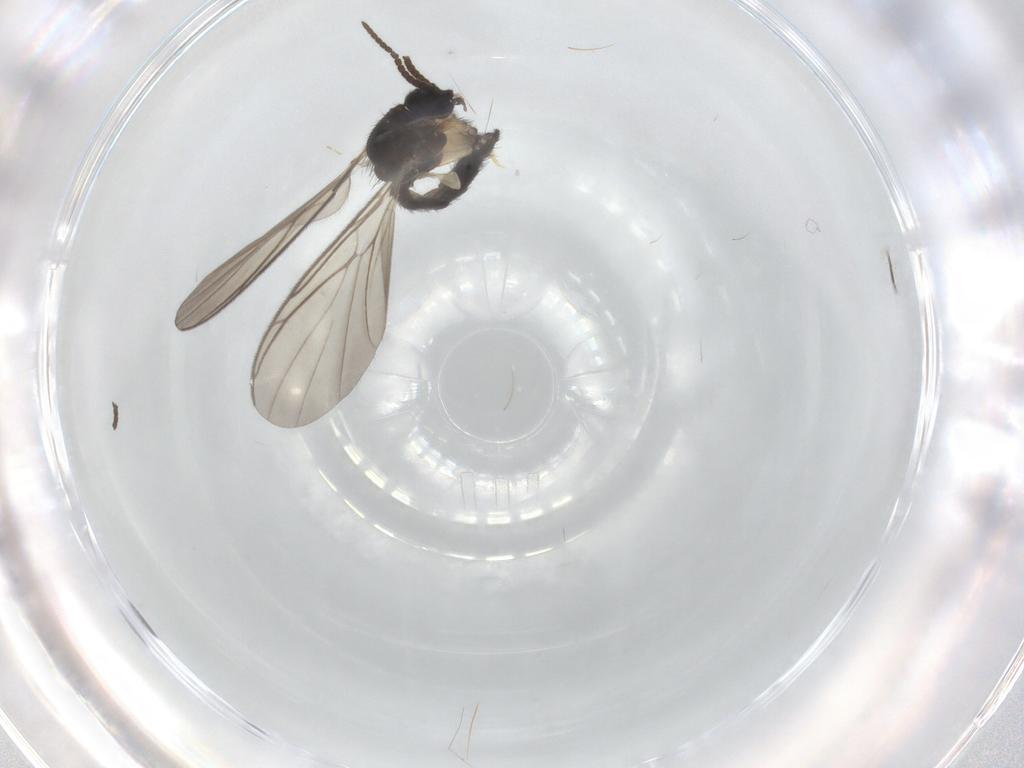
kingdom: Animalia
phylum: Arthropoda
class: Insecta
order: Diptera
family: Keroplatidae
